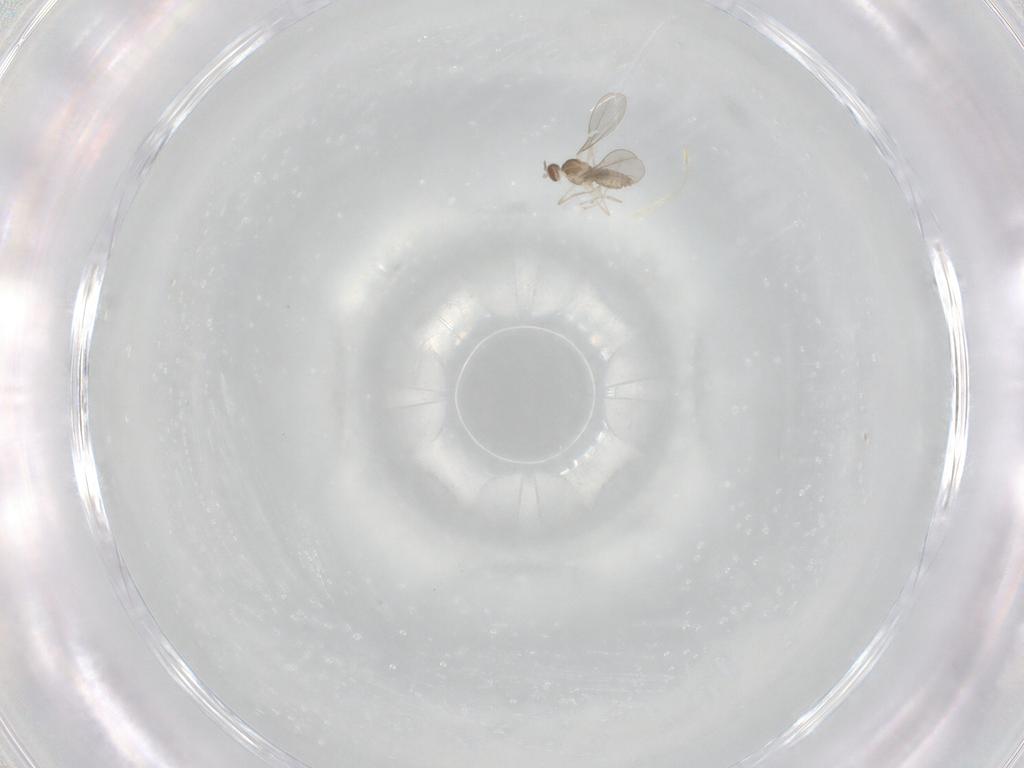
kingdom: Animalia
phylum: Arthropoda
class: Insecta
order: Diptera
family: Cecidomyiidae
